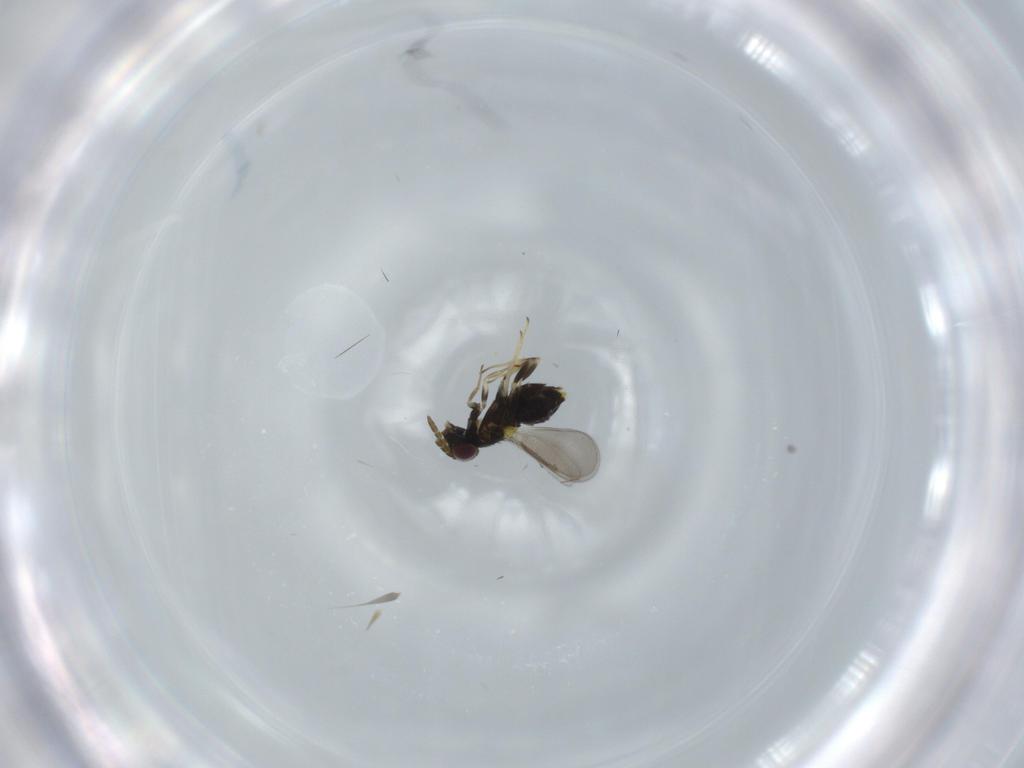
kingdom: Animalia
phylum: Arthropoda
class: Insecta
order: Hymenoptera
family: Aphelinidae
